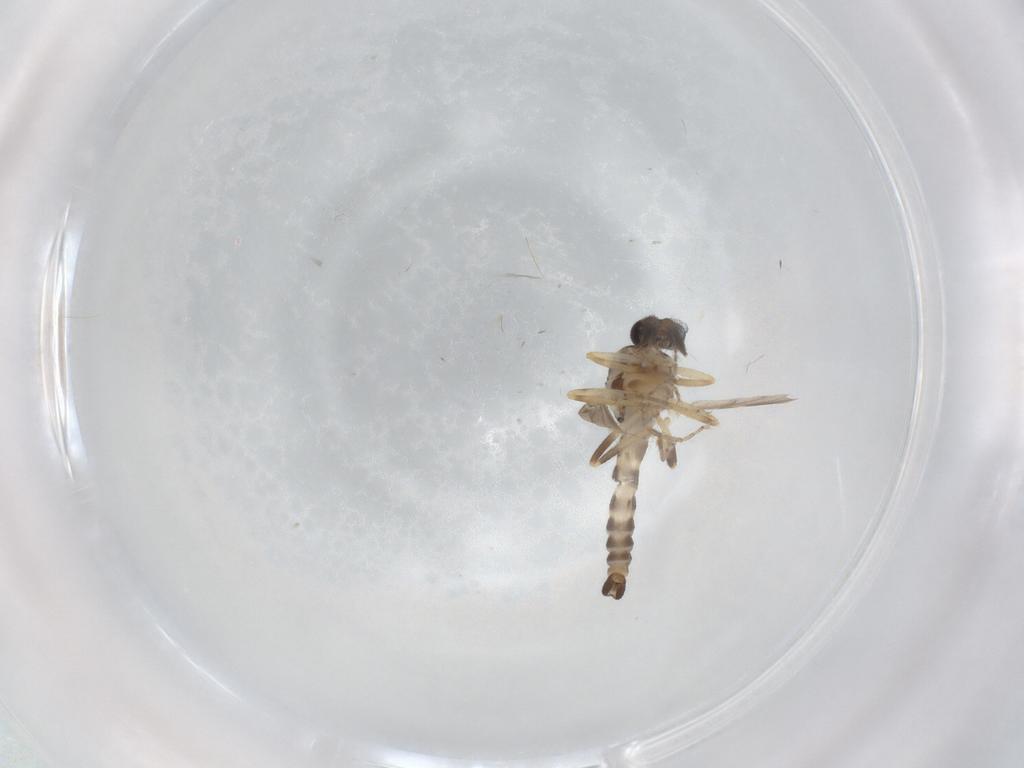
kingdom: Animalia
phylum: Arthropoda
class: Insecta
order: Diptera
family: Ceratopogonidae
